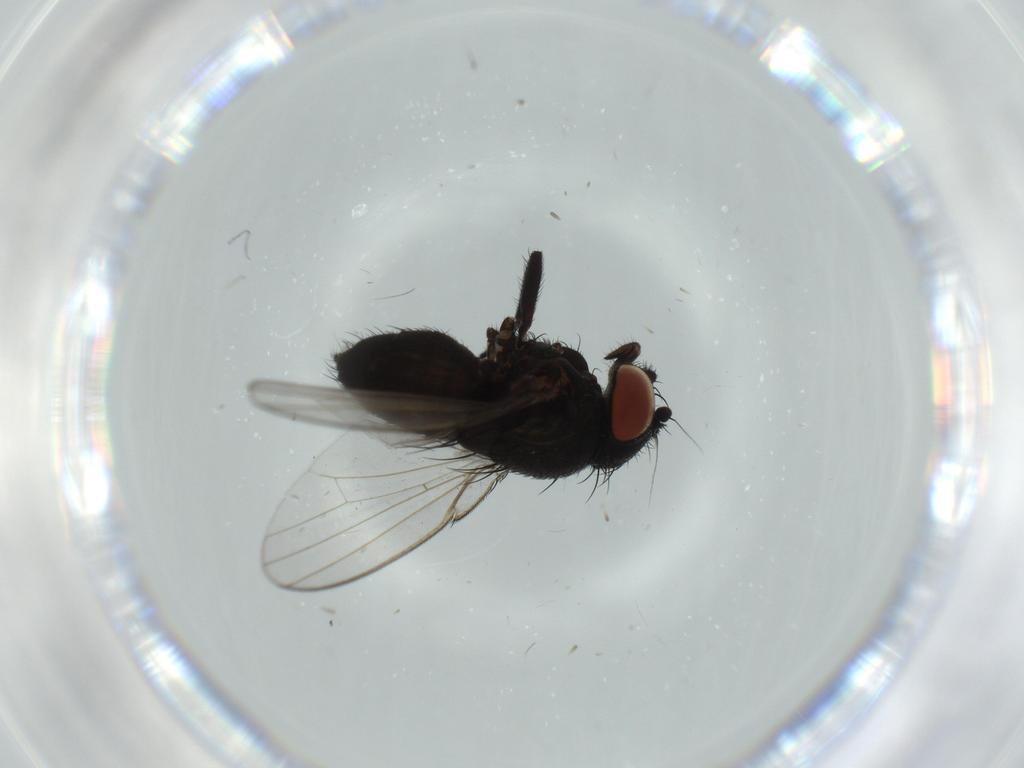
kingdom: Animalia
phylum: Arthropoda
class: Insecta
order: Diptera
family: Milichiidae
